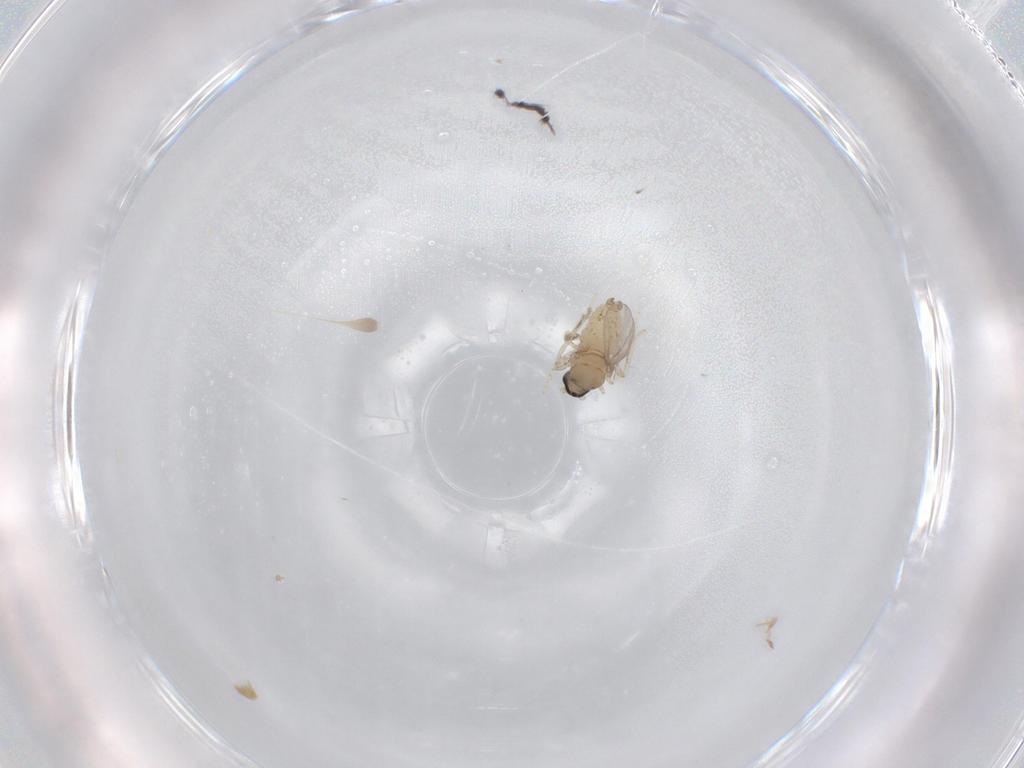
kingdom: Animalia
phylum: Arthropoda
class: Insecta
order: Diptera
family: Cecidomyiidae
